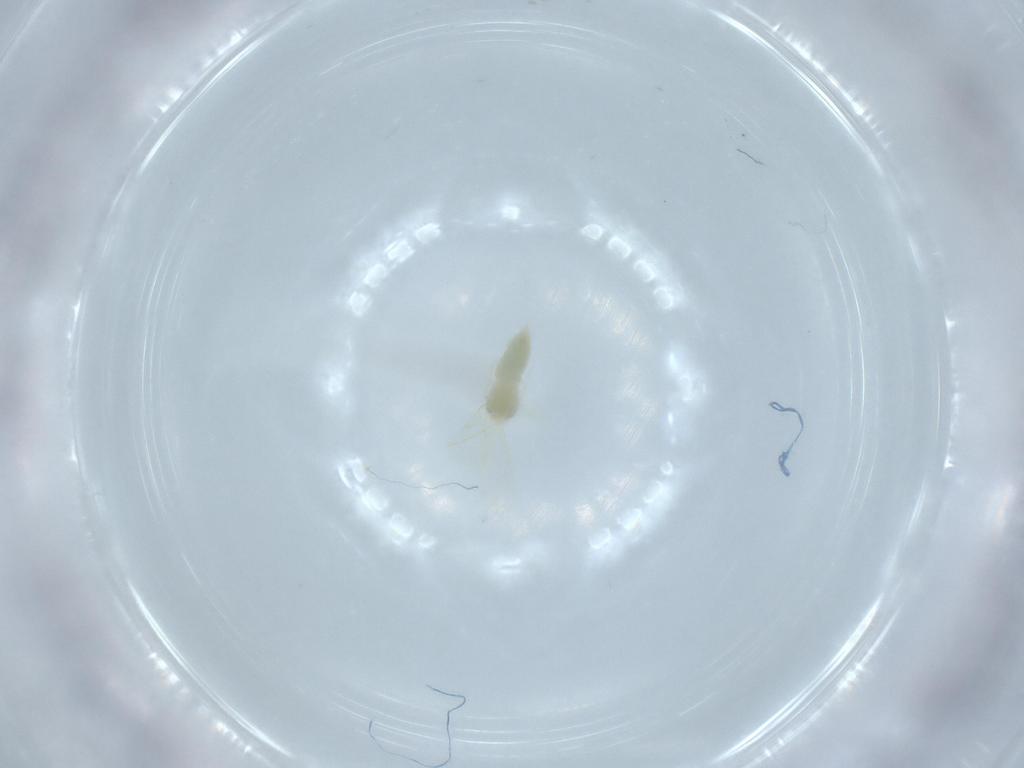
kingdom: Animalia
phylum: Arthropoda
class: Insecta
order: Hemiptera
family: Aleyrodidae
